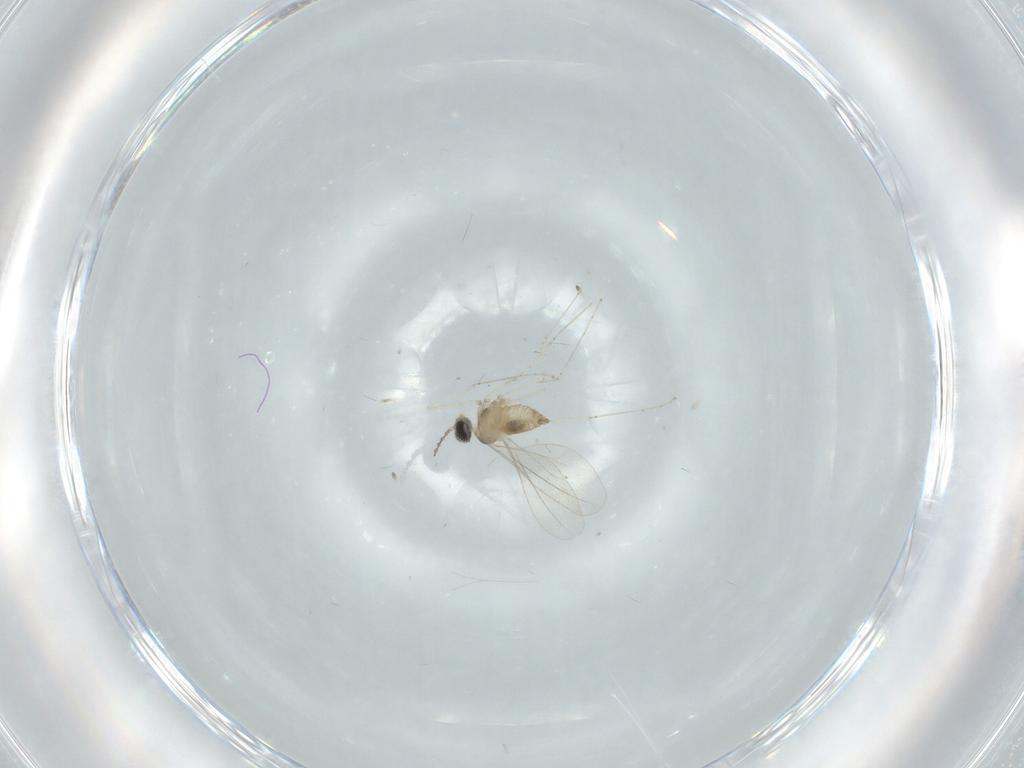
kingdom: Animalia
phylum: Arthropoda
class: Insecta
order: Diptera
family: Cecidomyiidae
